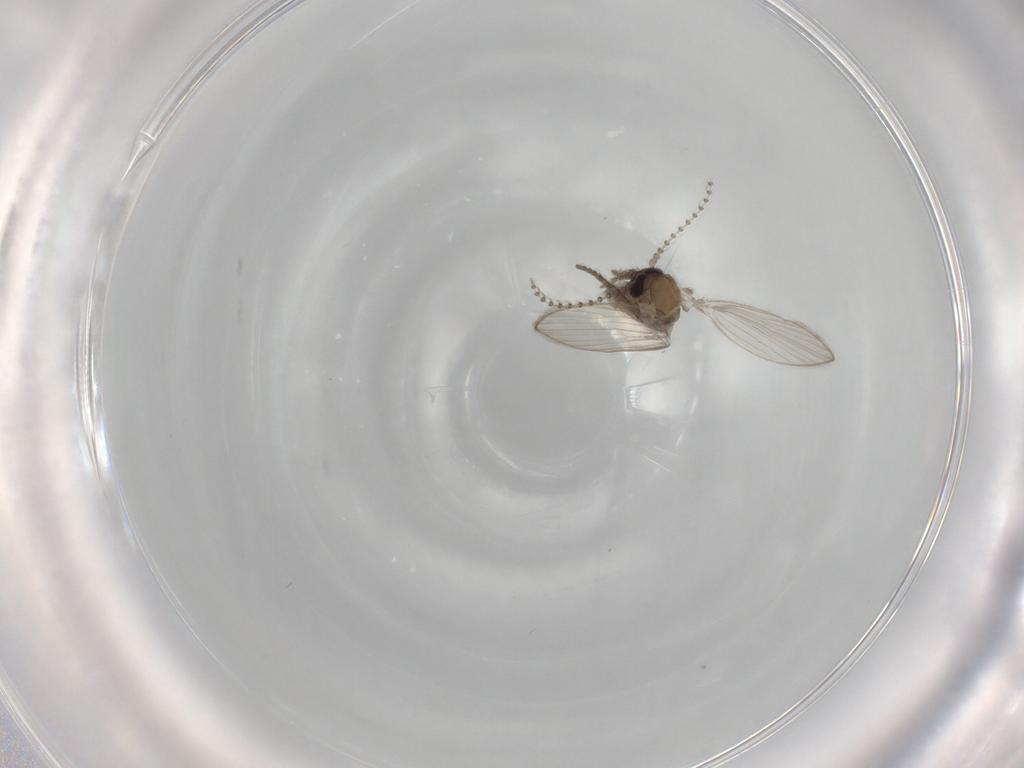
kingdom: Animalia
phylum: Arthropoda
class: Insecta
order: Diptera
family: Psychodidae
